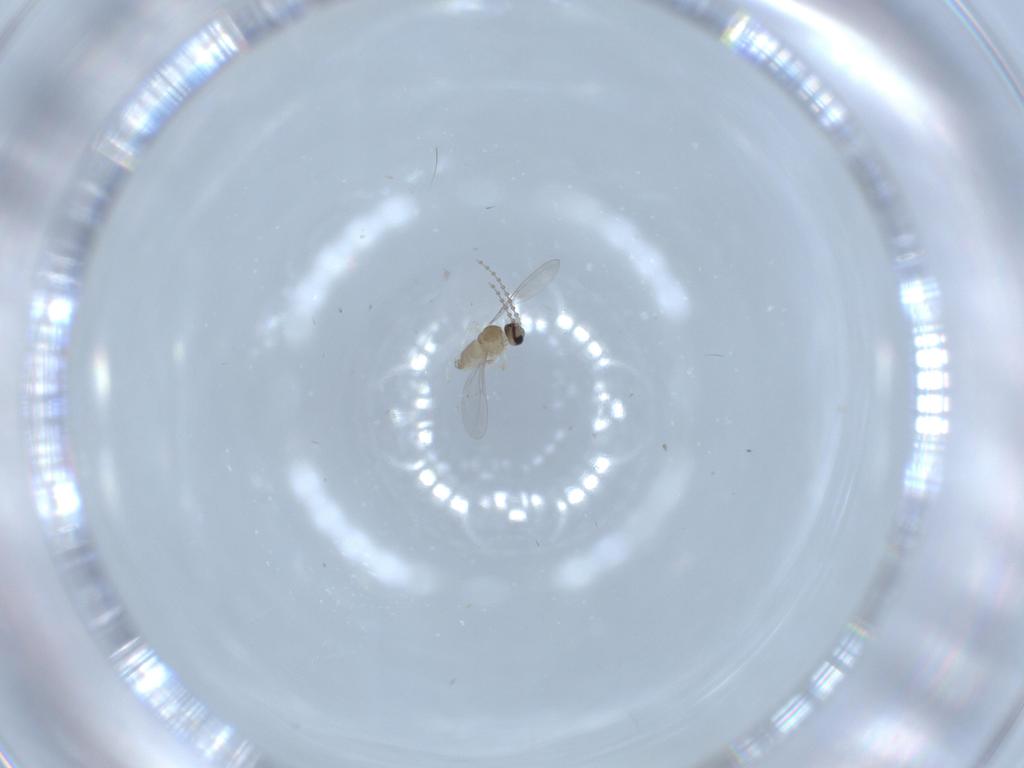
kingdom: Animalia
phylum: Arthropoda
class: Insecta
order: Diptera
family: Cecidomyiidae
